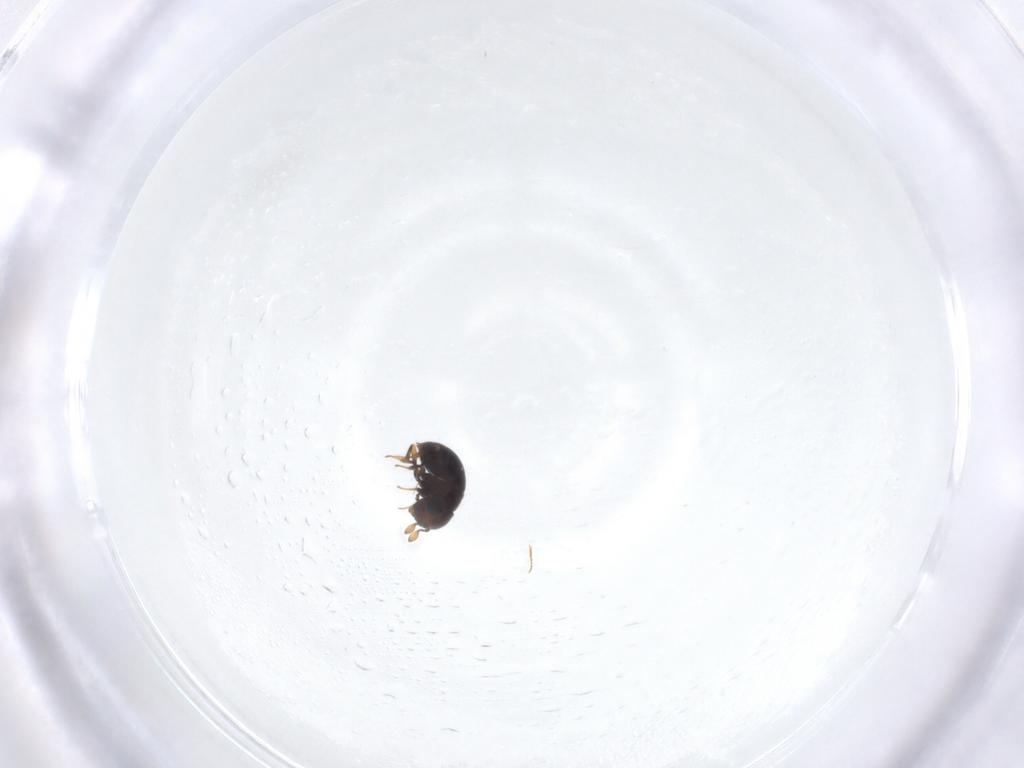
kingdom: Animalia
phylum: Arthropoda
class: Insecta
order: Hymenoptera
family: Scelionidae
